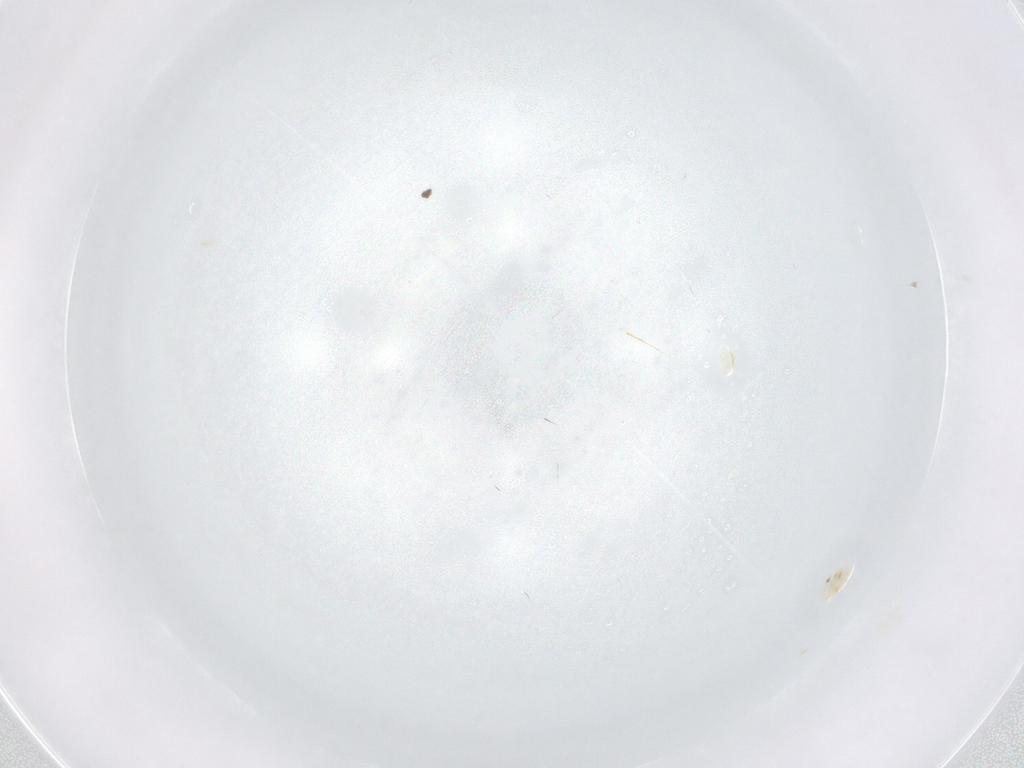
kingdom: Animalia
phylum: Arthropoda
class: Insecta
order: Diptera
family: Cecidomyiidae
